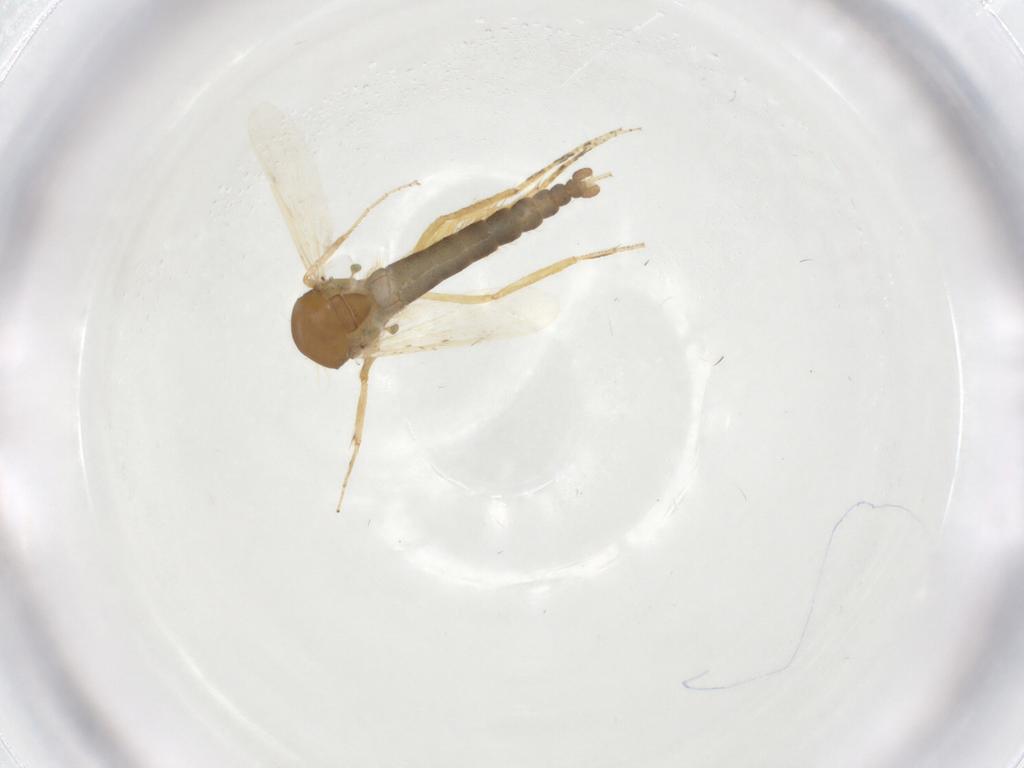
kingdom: Animalia
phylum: Arthropoda
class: Insecta
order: Diptera
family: Ceratopogonidae
